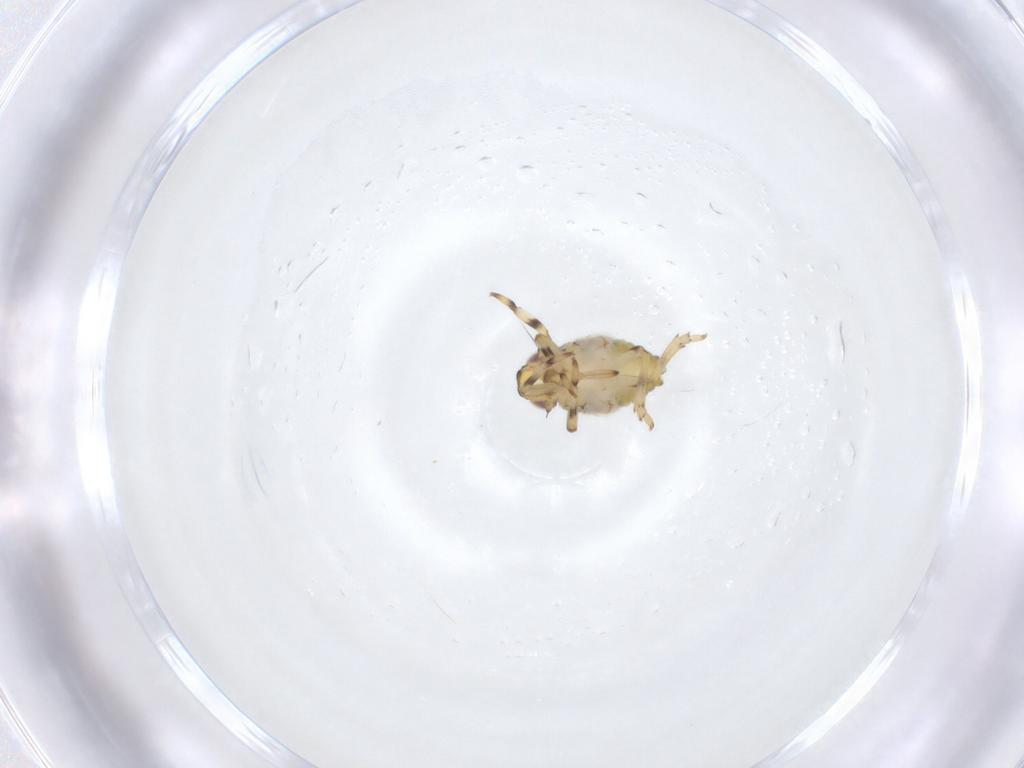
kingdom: Animalia
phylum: Arthropoda
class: Insecta
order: Hemiptera
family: Issidae
